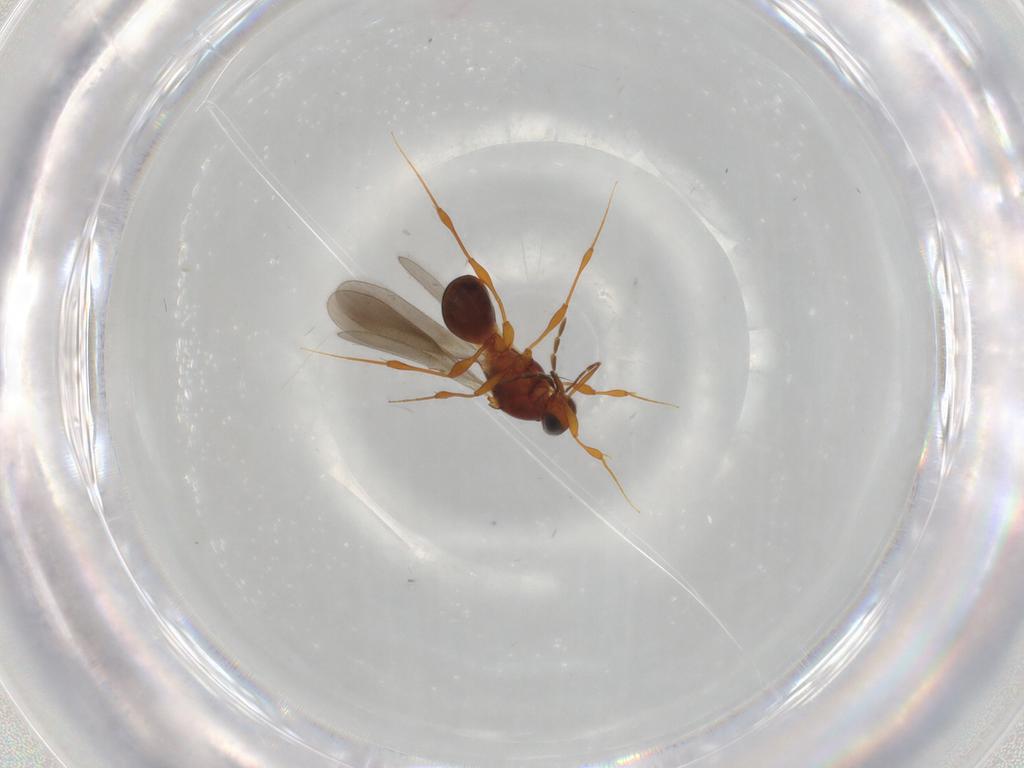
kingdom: Animalia
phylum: Arthropoda
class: Insecta
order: Hymenoptera
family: Platygastridae
